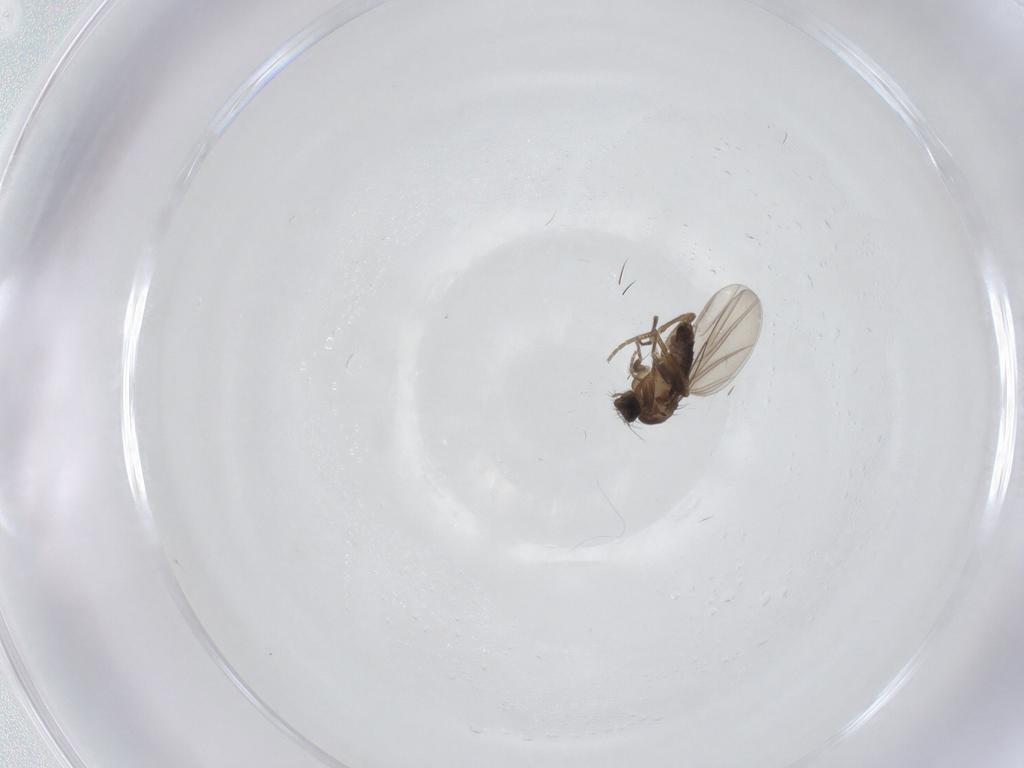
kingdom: Animalia
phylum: Arthropoda
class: Insecta
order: Diptera
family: Phoridae
